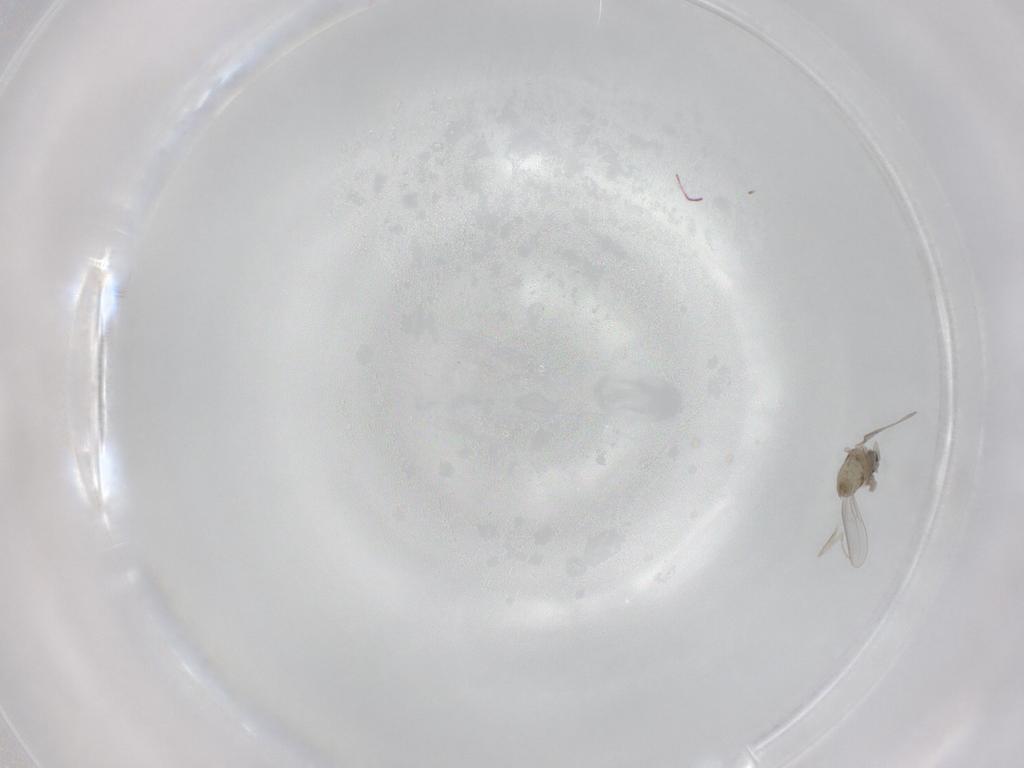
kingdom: Animalia
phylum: Arthropoda
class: Insecta
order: Diptera
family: Cecidomyiidae
